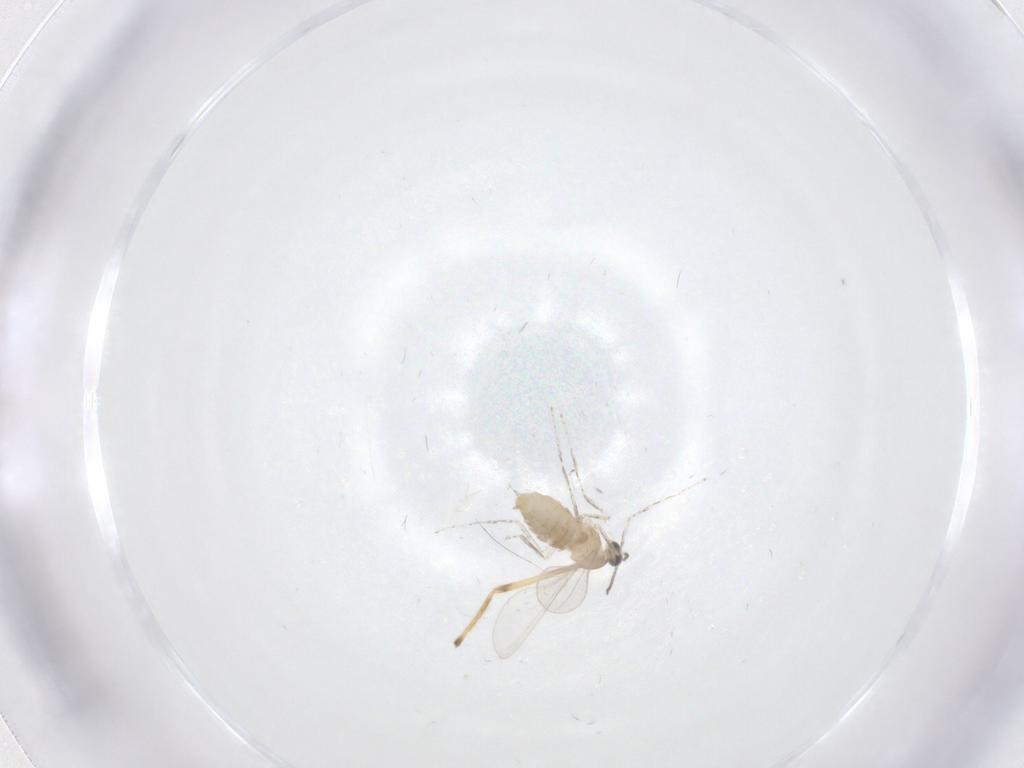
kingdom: Animalia
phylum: Arthropoda
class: Insecta
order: Diptera
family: Cecidomyiidae
